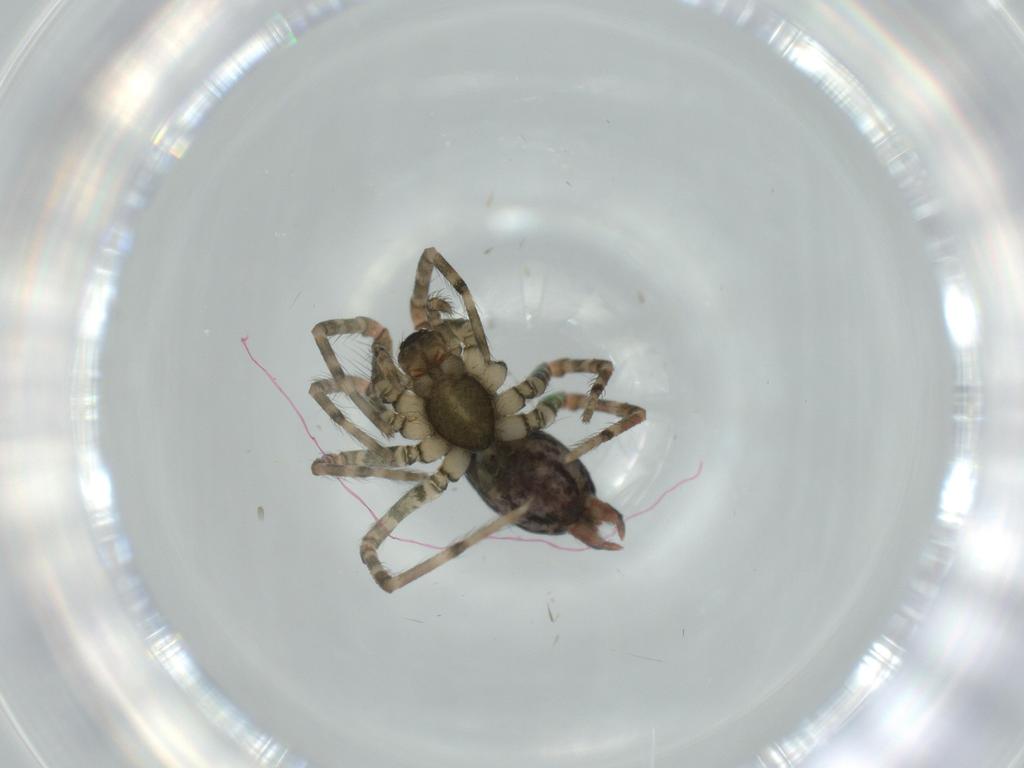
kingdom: Animalia
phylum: Arthropoda
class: Arachnida
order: Araneae
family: Agelenidae
